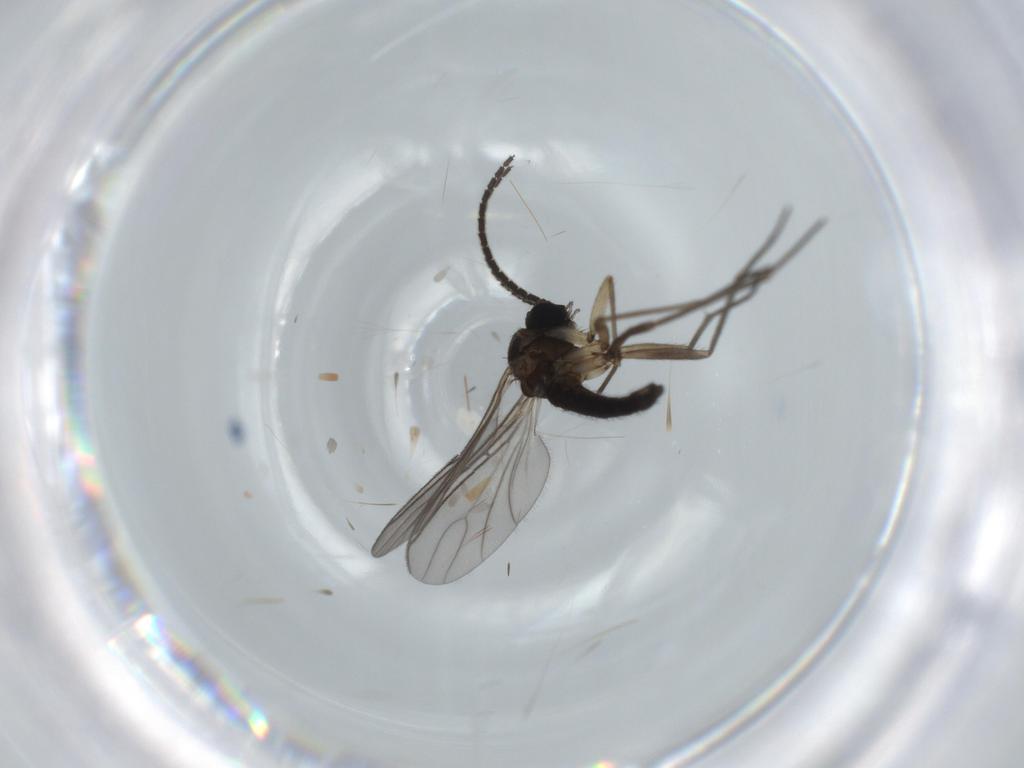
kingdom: Animalia
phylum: Arthropoda
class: Insecta
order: Diptera
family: Sciaridae
